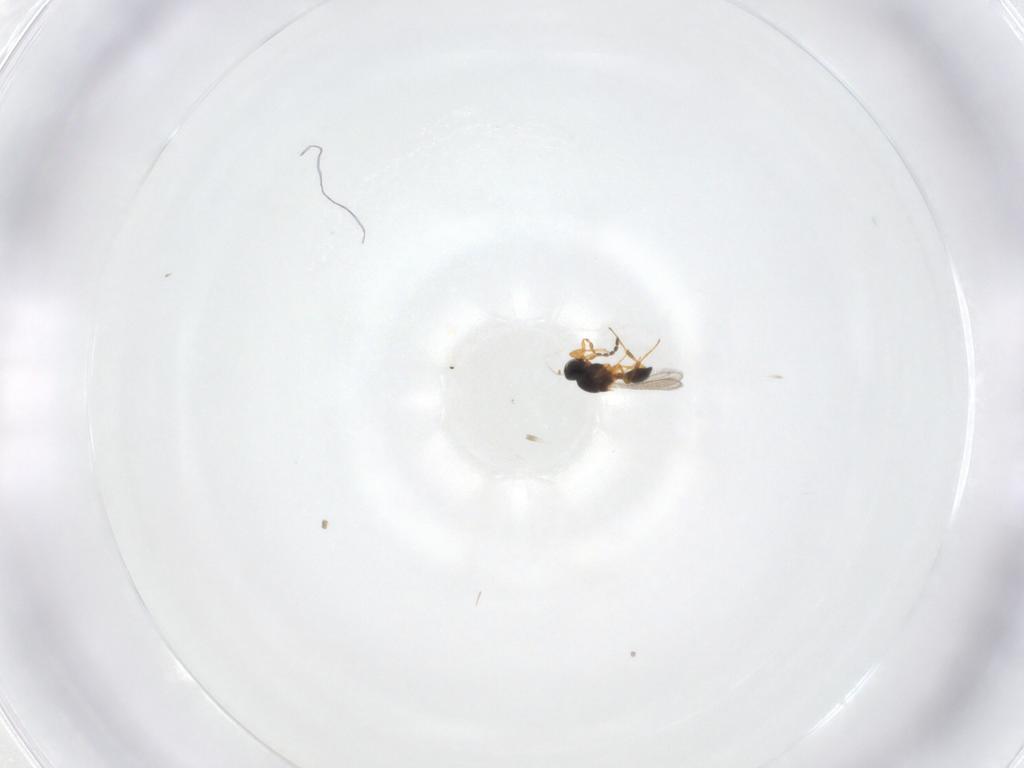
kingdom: Animalia
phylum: Arthropoda
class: Insecta
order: Hymenoptera
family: Platygastridae
